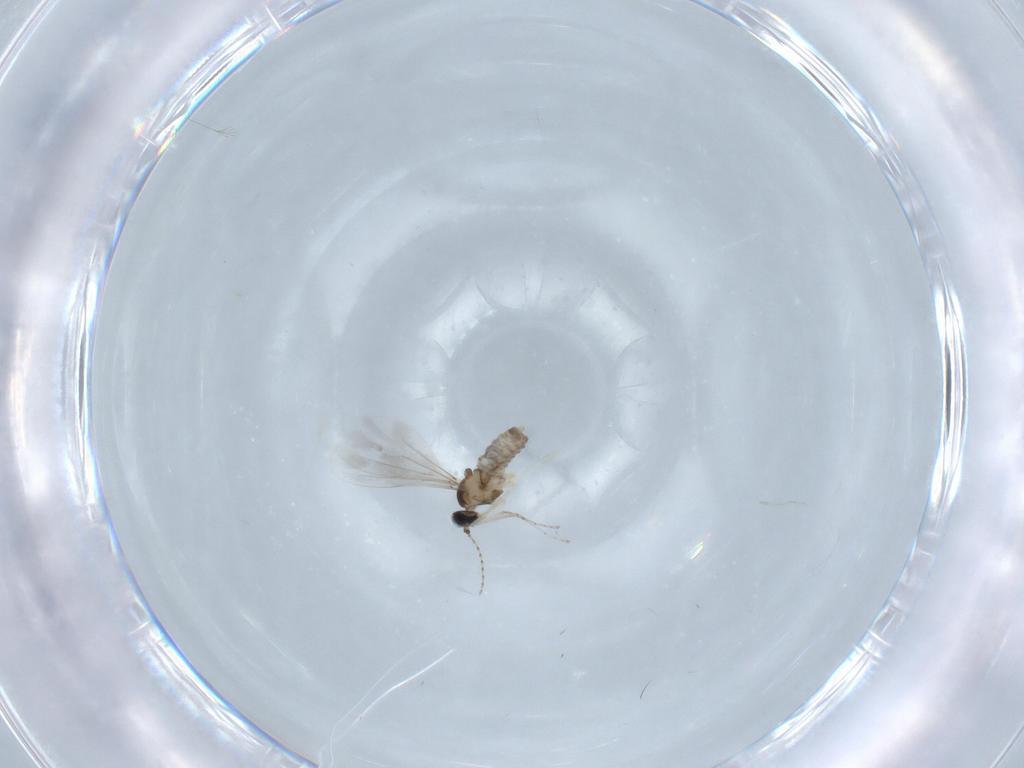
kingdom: Animalia
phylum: Arthropoda
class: Insecta
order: Diptera
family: Cecidomyiidae
